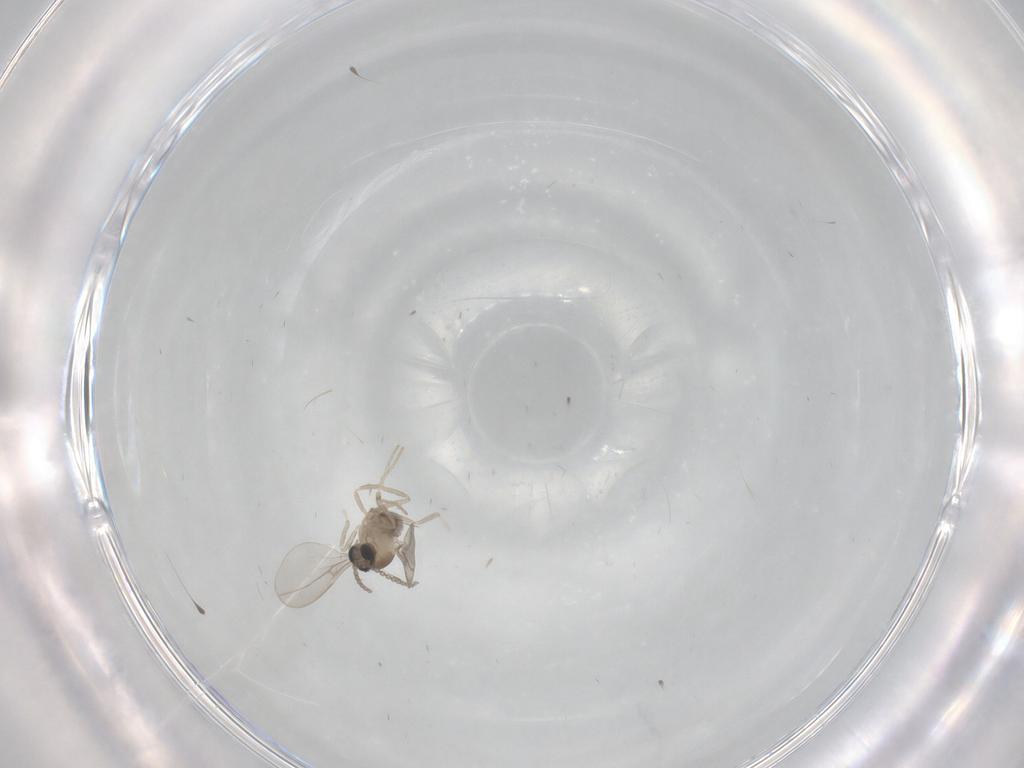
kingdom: Animalia
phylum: Arthropoda
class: Insecta
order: Diptera
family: Cecidomyiidae
